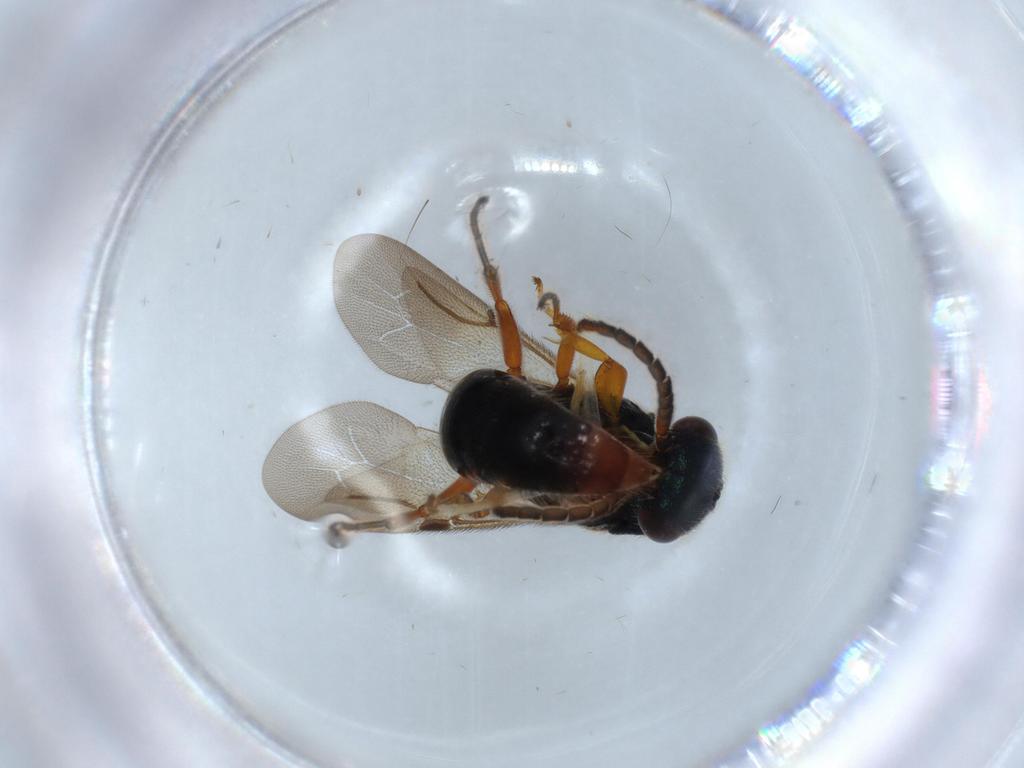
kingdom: Animalia
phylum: Arthropoda
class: Insecta
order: Hymenoptera
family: Bethylidae
